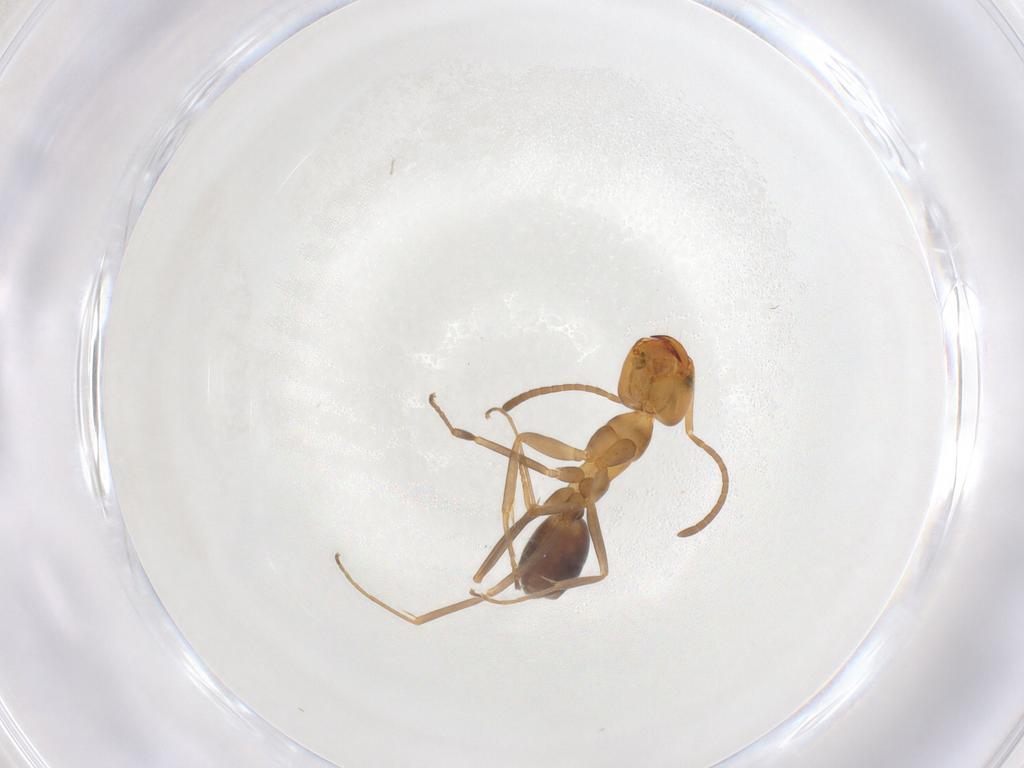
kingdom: Animalia
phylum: Arthropoda
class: Insecta
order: Hymenoptera
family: Formicidae
